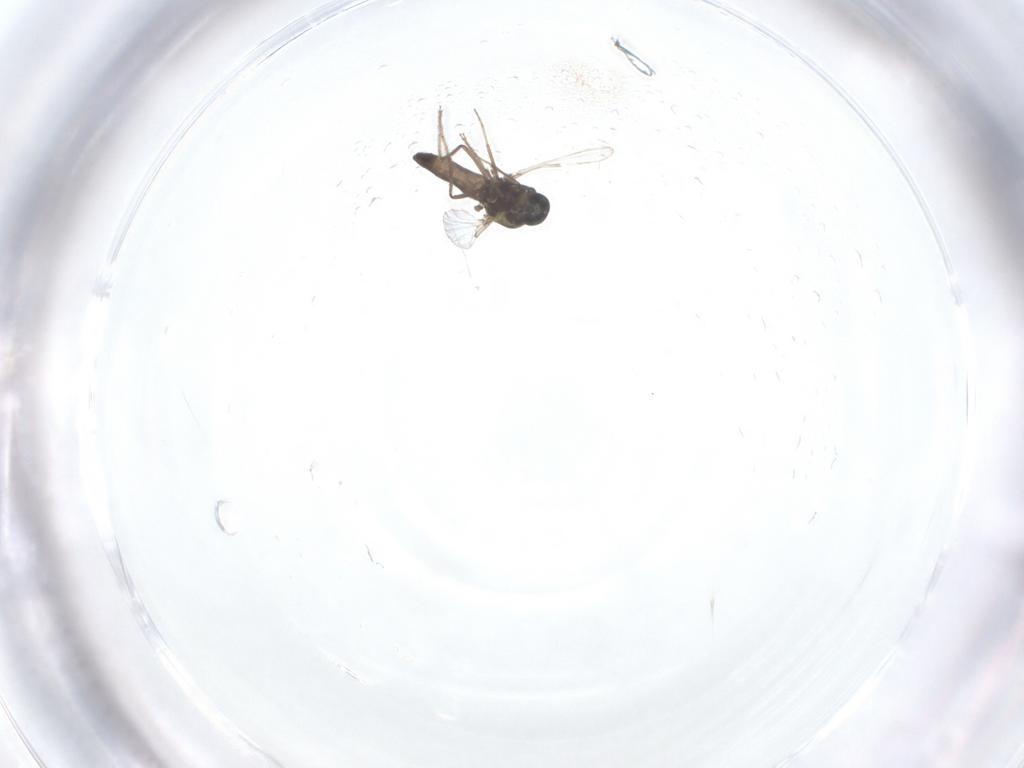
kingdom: Animalia
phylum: Arthropoda
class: Insecta
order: Diptera
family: Ceratopogonidae
